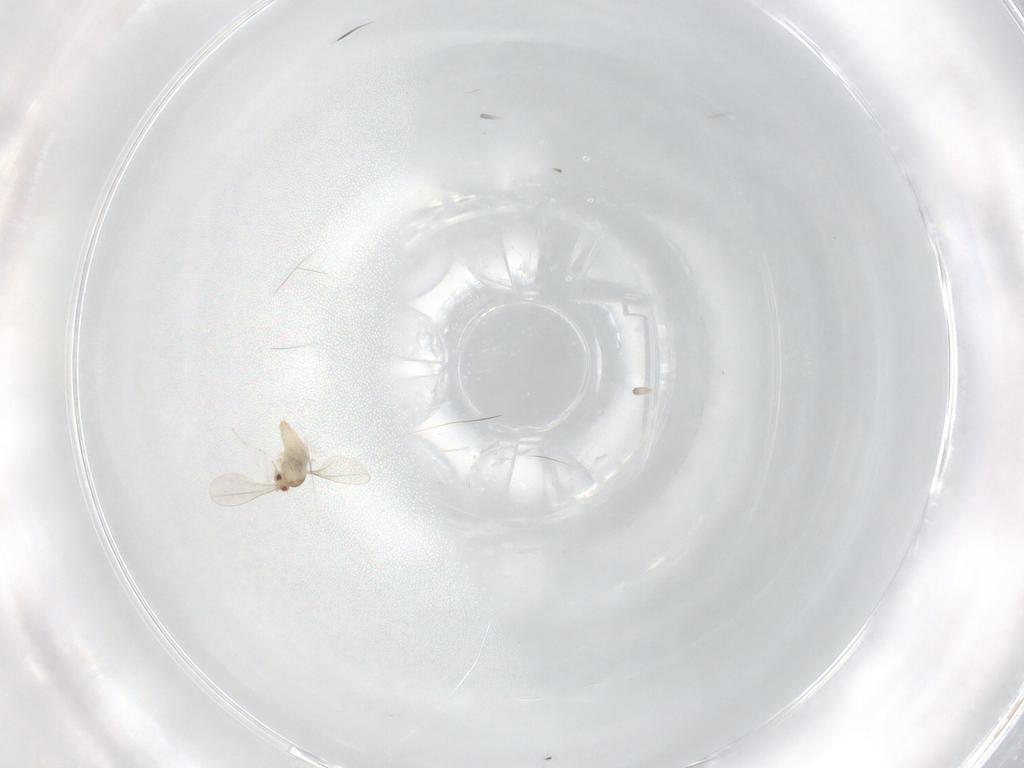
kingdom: Animalia
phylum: Arthropoda
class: Insecta
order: Diptera
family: Cecidomyiidae
